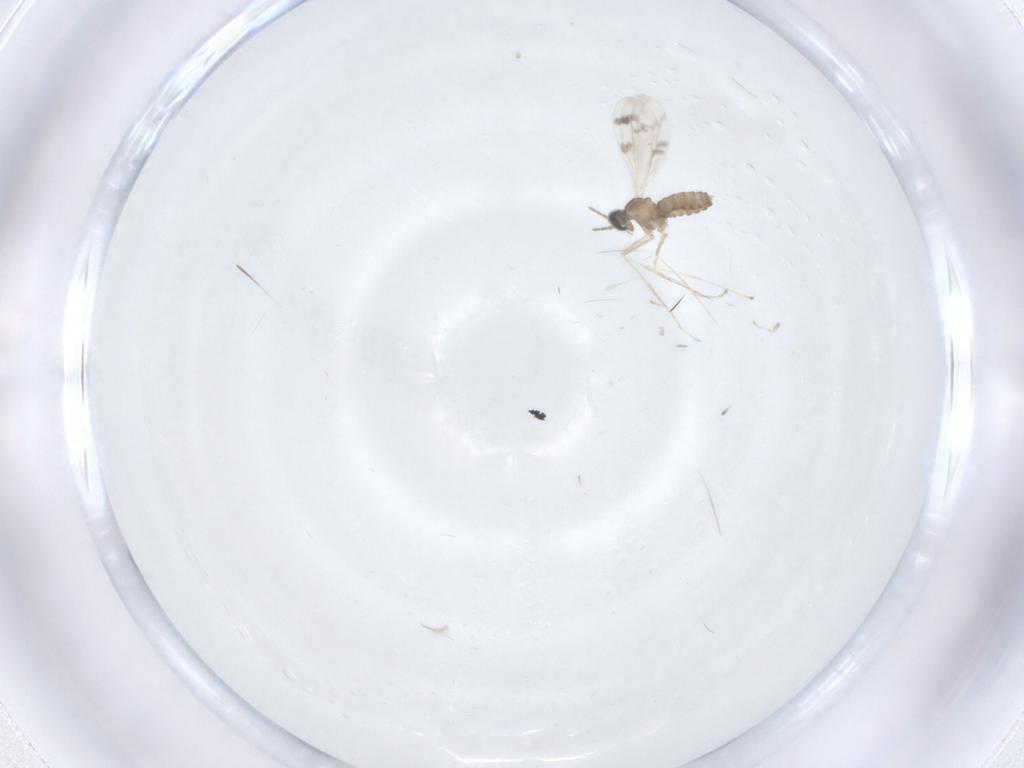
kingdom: Animalia
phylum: Arthropoda
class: Insecta
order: Diptera
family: Cecidomyiidae
